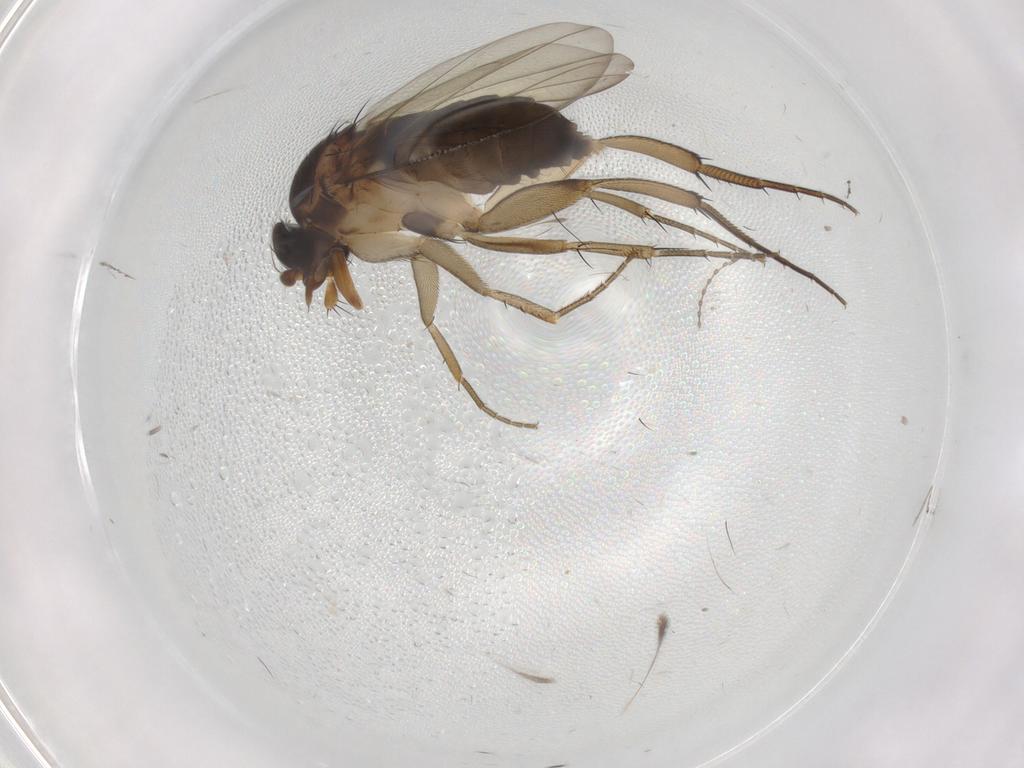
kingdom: Animalia
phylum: Arthropoda
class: Insecta
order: Diptera
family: Phoridae
